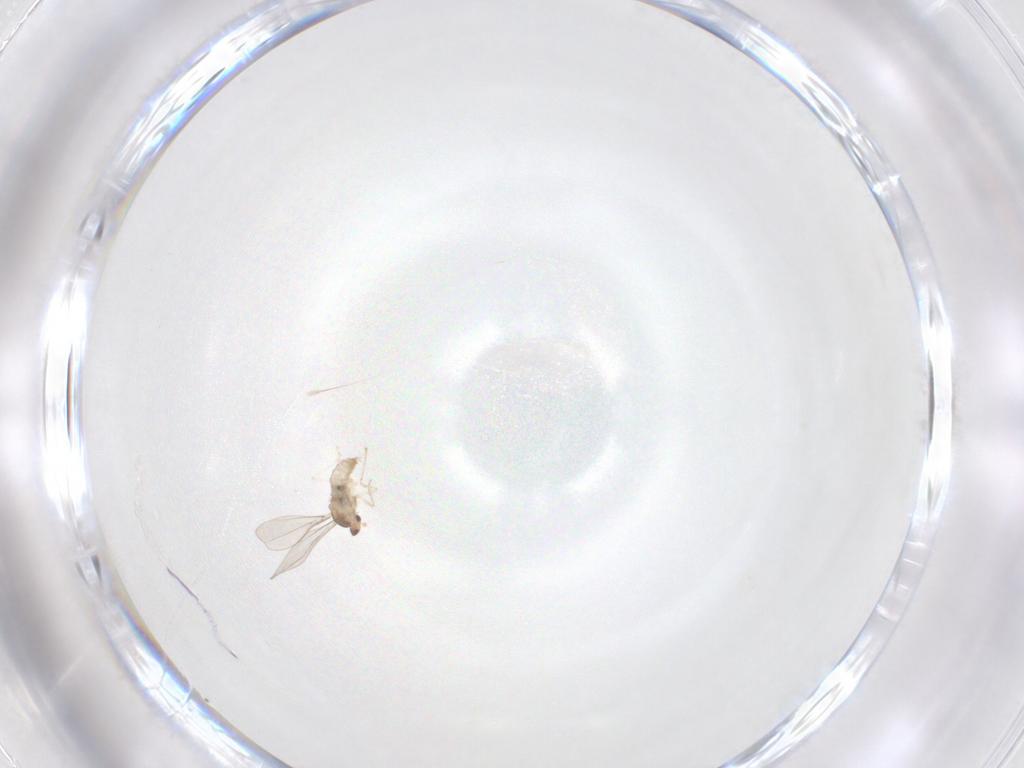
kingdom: Animalia
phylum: Arthropoda
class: Insecta
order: Diptera
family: Cecidomyiidae
